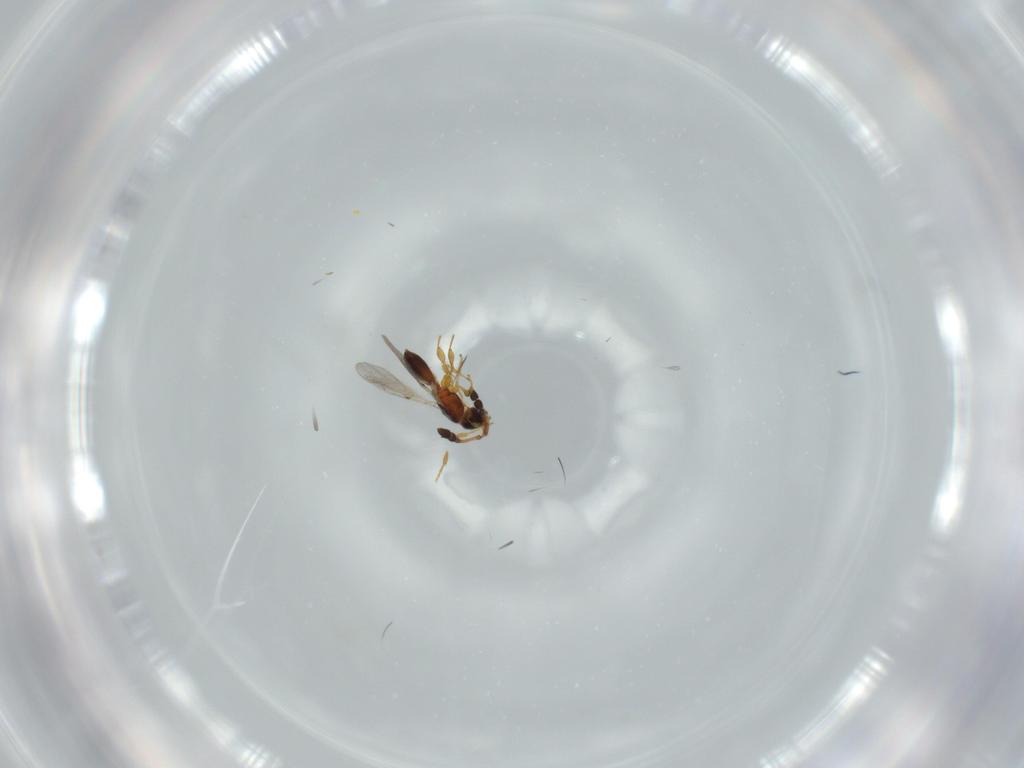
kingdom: Animalia
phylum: Arthropoda
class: Insecta
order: Hymenoptera
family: Diapriidae
